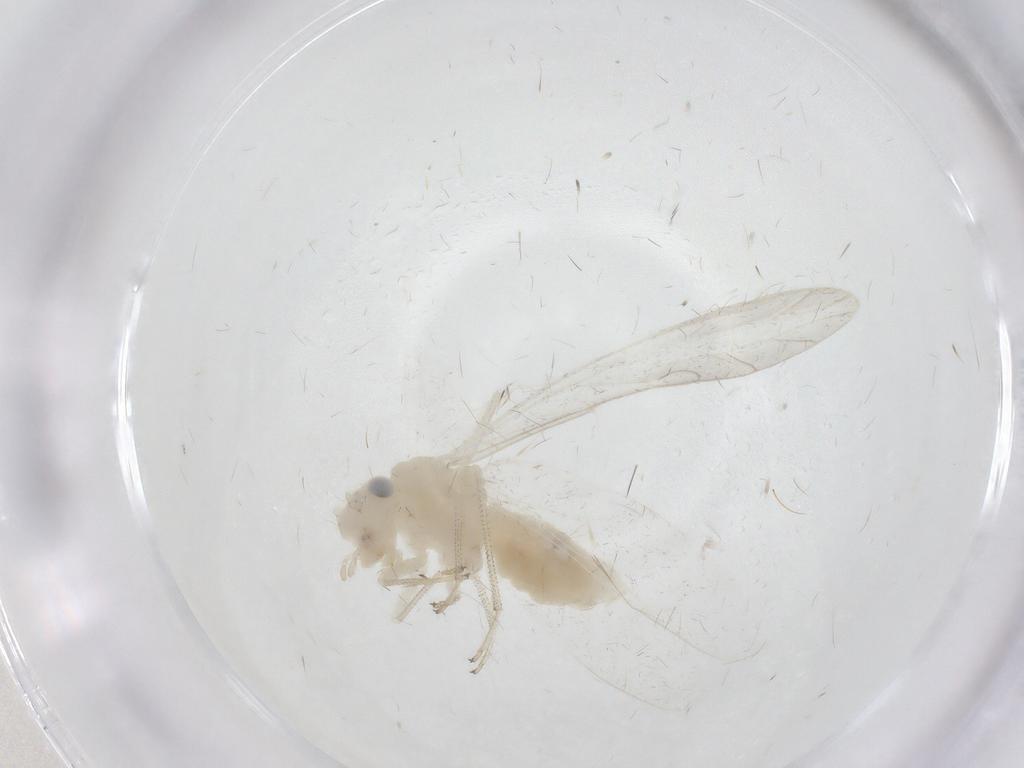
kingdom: Animalia
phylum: Arthropoda
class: Insecta
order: Psocodea
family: Caeciliusidae
